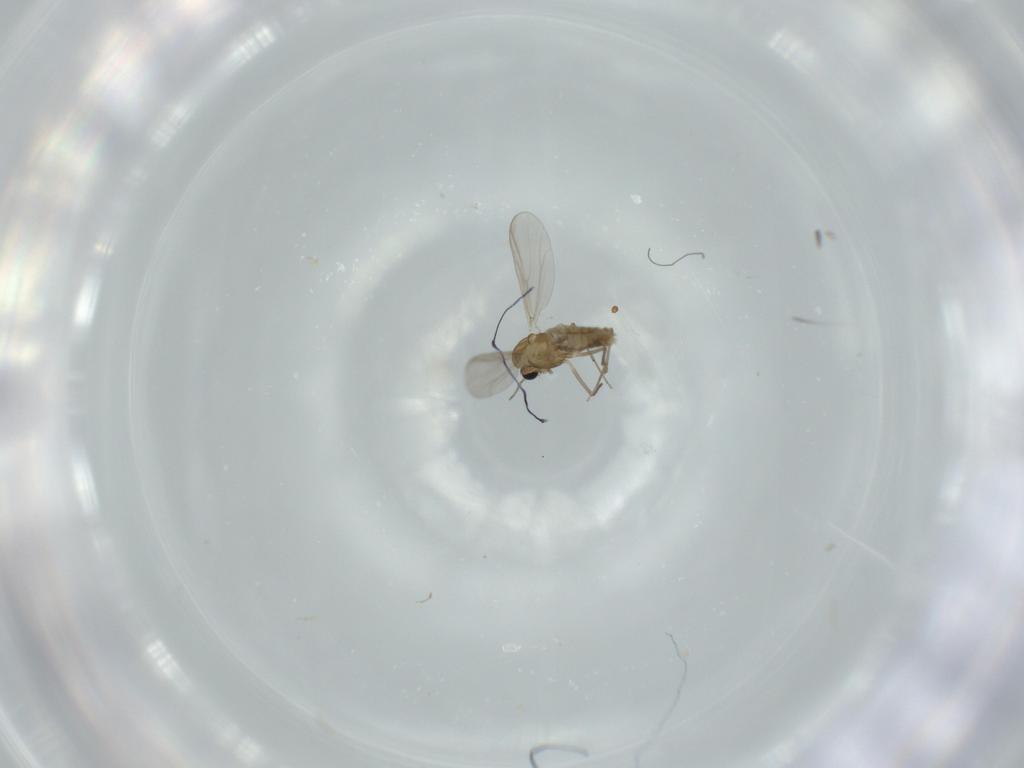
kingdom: Animalia
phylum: Arthropoda
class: Insecta
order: Diptera
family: Chironomidae
